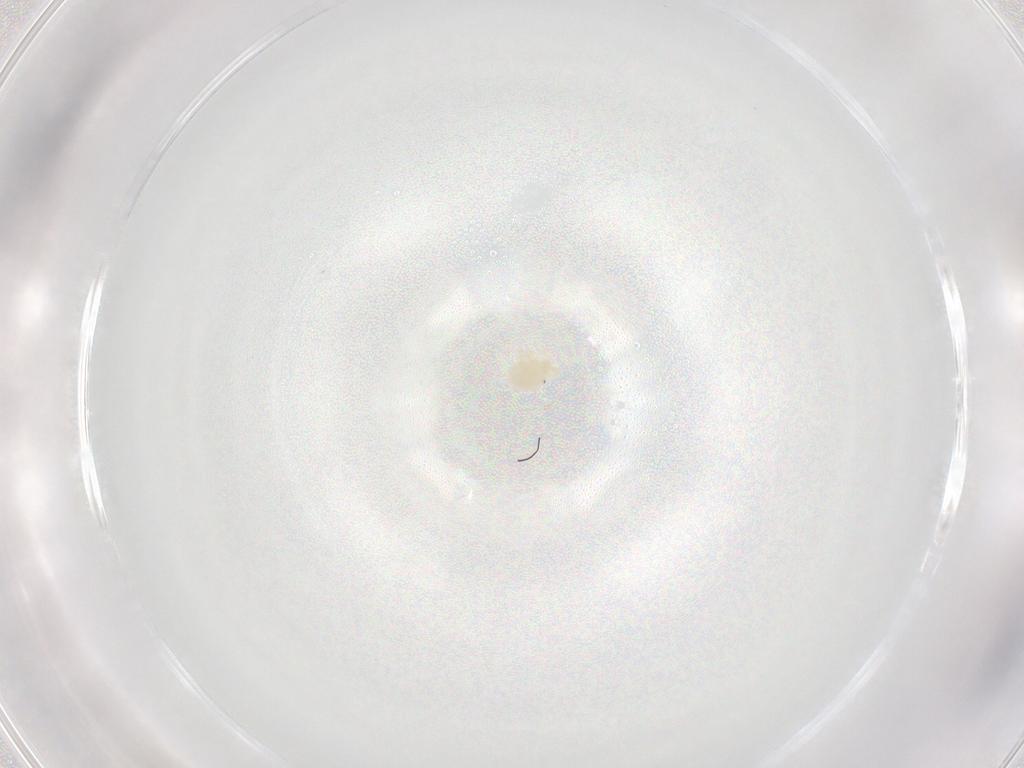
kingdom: Animalia
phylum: Arthropoda
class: Arachnida
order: Trombidiformes
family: Sperchontidae
